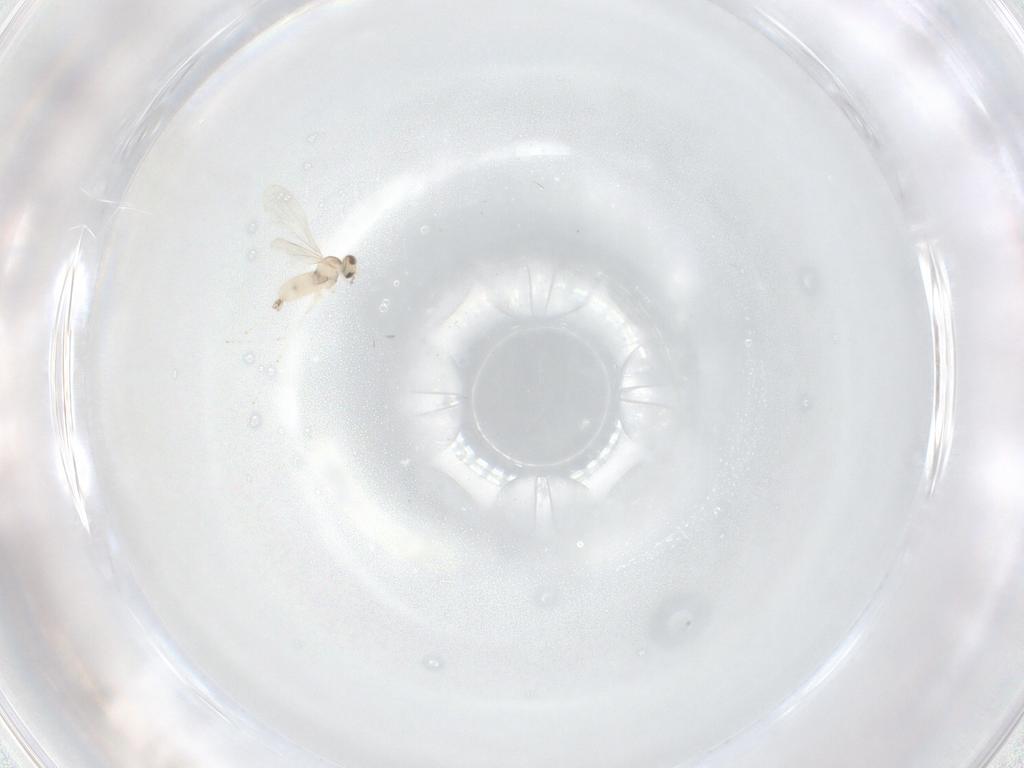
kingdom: Animalia
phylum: Arthropoda
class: Insecta
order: Diptera
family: Cecidomyiidae
